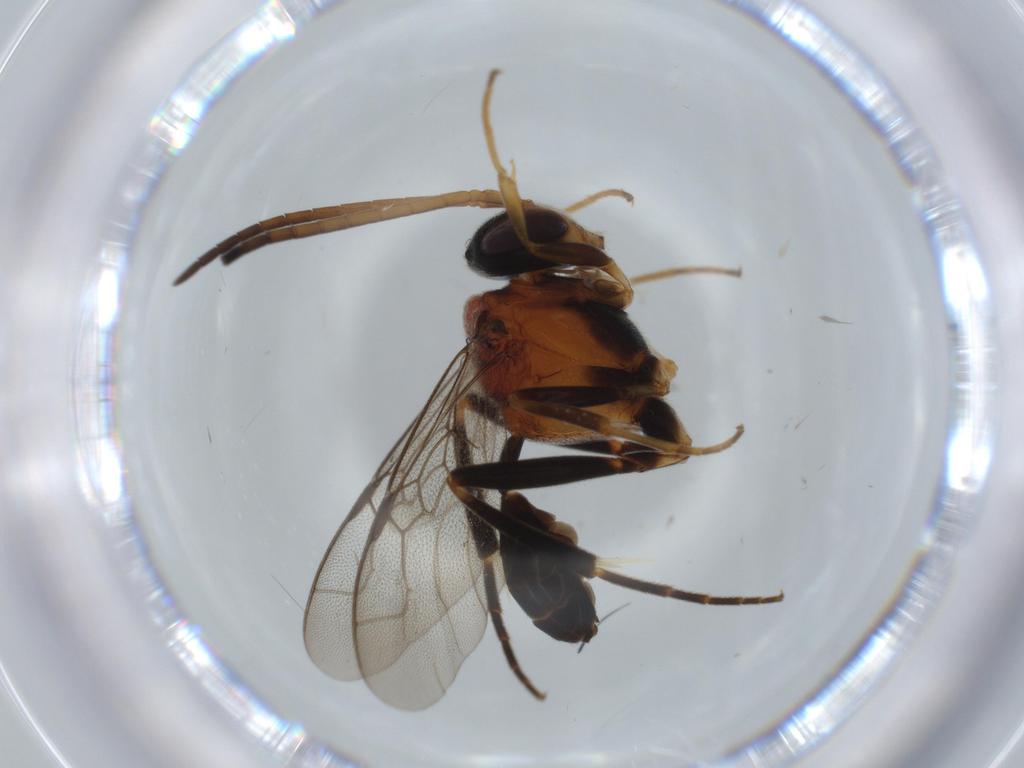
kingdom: Animalia
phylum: Arthropoda
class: Insecta
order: Hymenoptera
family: Evaniidae
